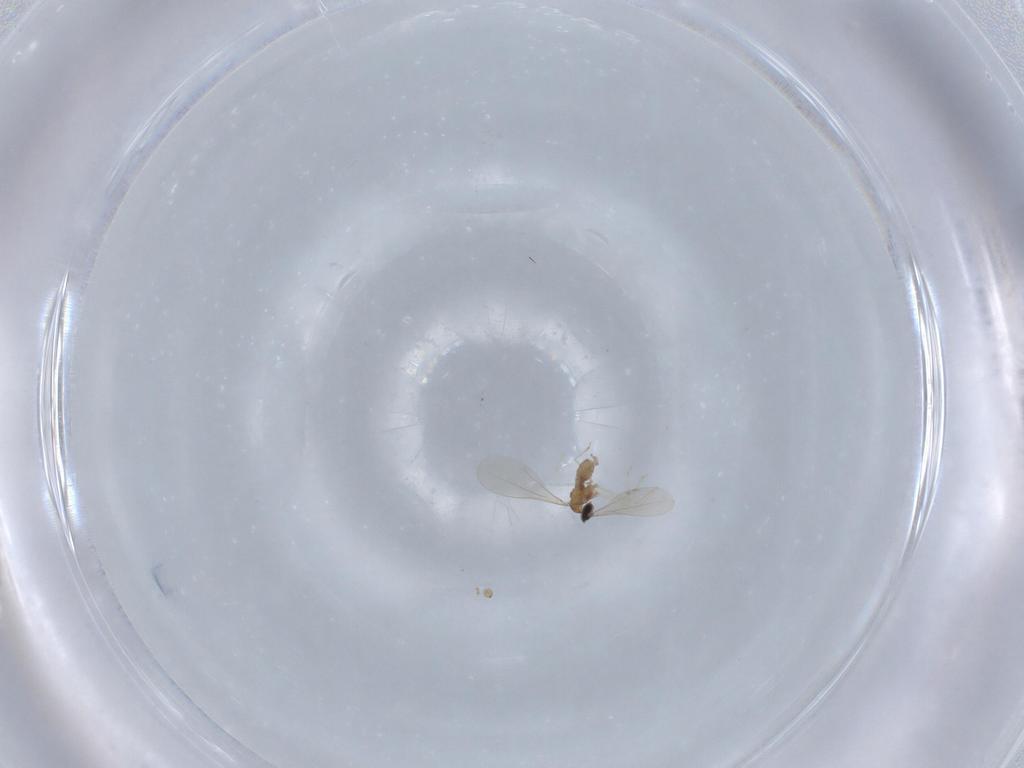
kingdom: Animalia
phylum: Arthropoda
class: Insecta
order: Diptera
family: Cecidomyiidae
